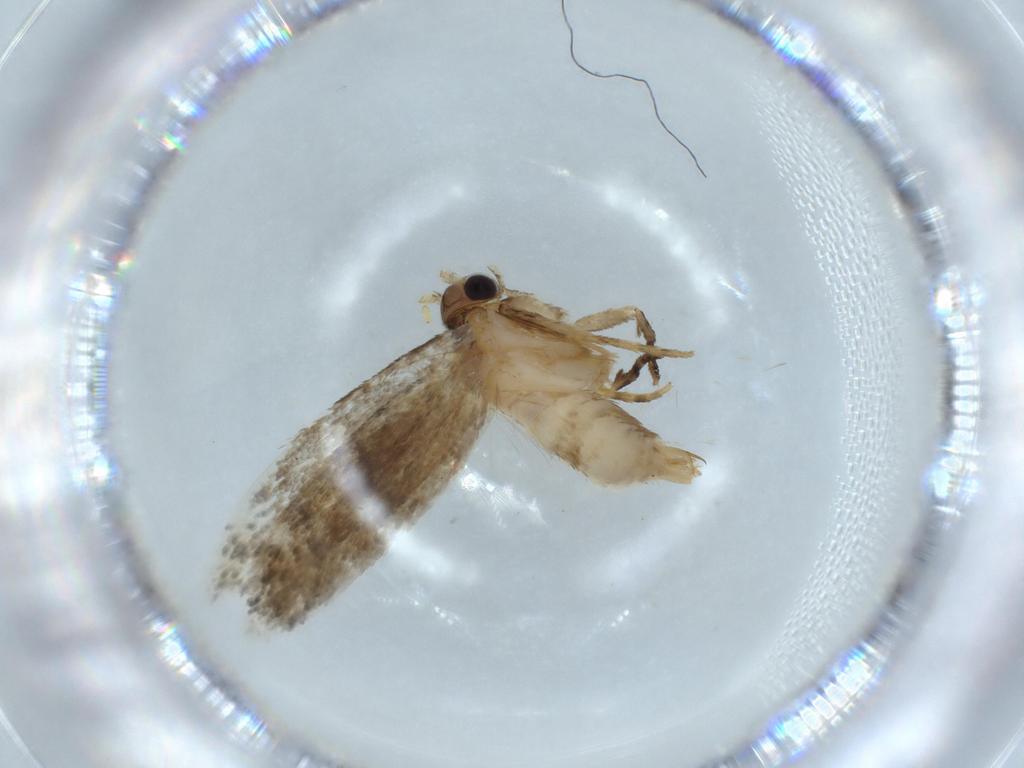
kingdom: Animalia
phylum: Arthropoda
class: Insecta
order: Lepidoptera
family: Tineidae
